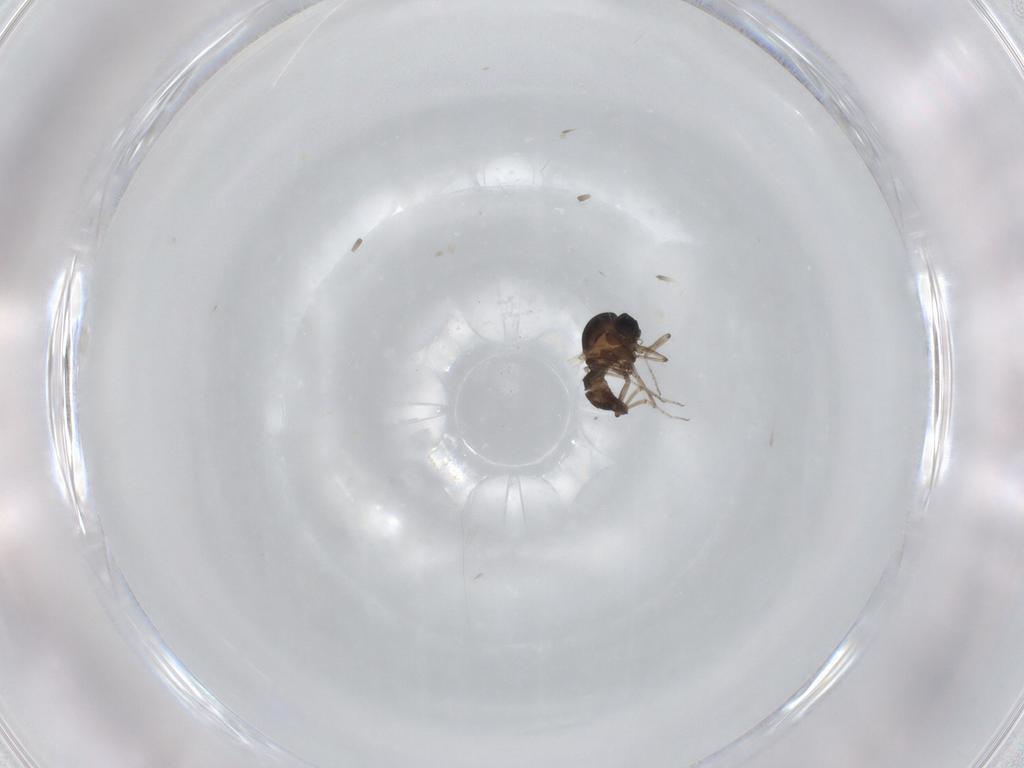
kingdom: Animalia
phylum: Arthropoda
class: Insecta
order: Diptera
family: Ceratopogonidae
